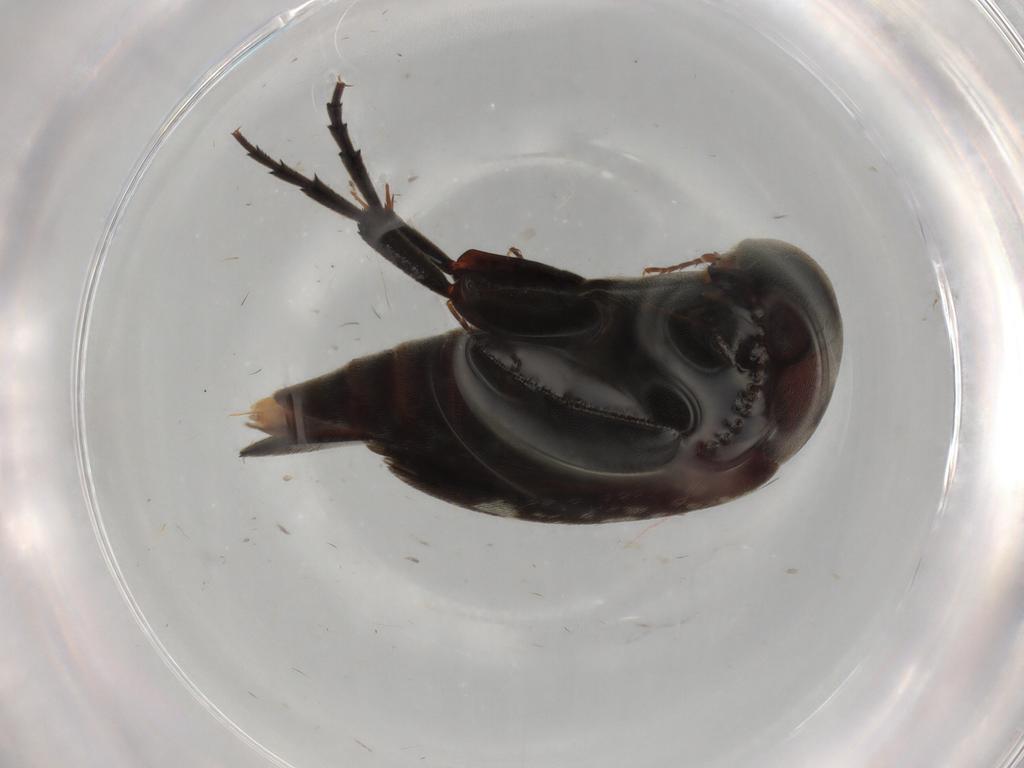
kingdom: Animalia
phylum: Arthropoda
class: Insecta
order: Coleoptera
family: Mordellidae
